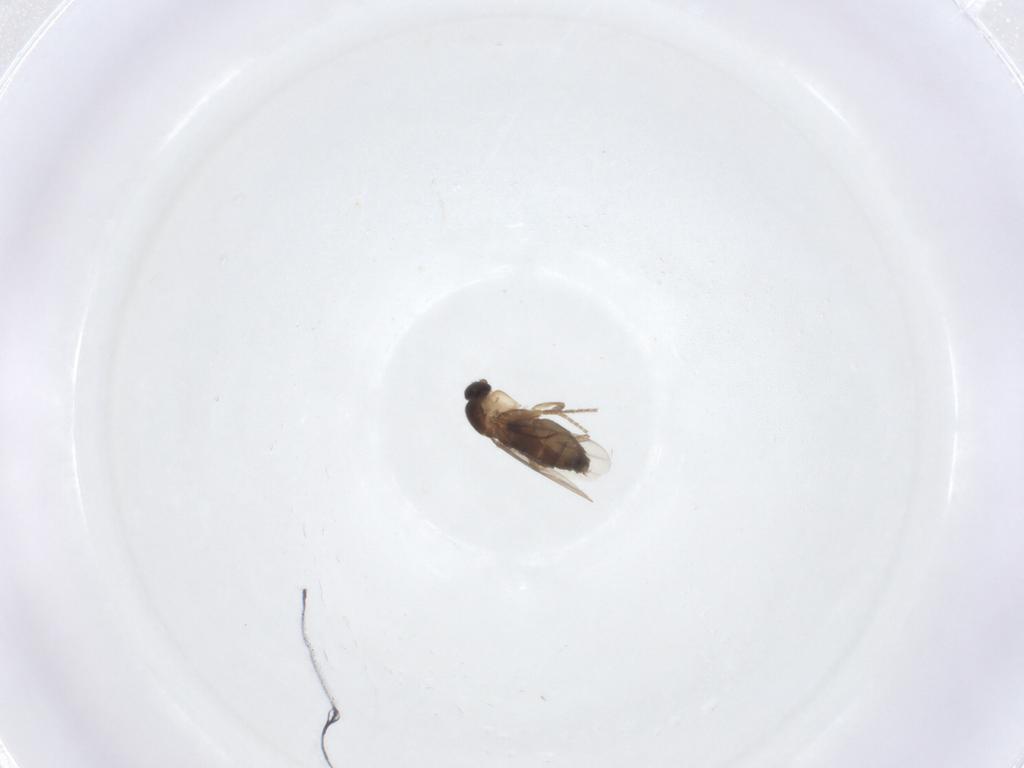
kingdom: Animalia
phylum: Arthropoda
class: Insecta
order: Diptera
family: Phoridae
